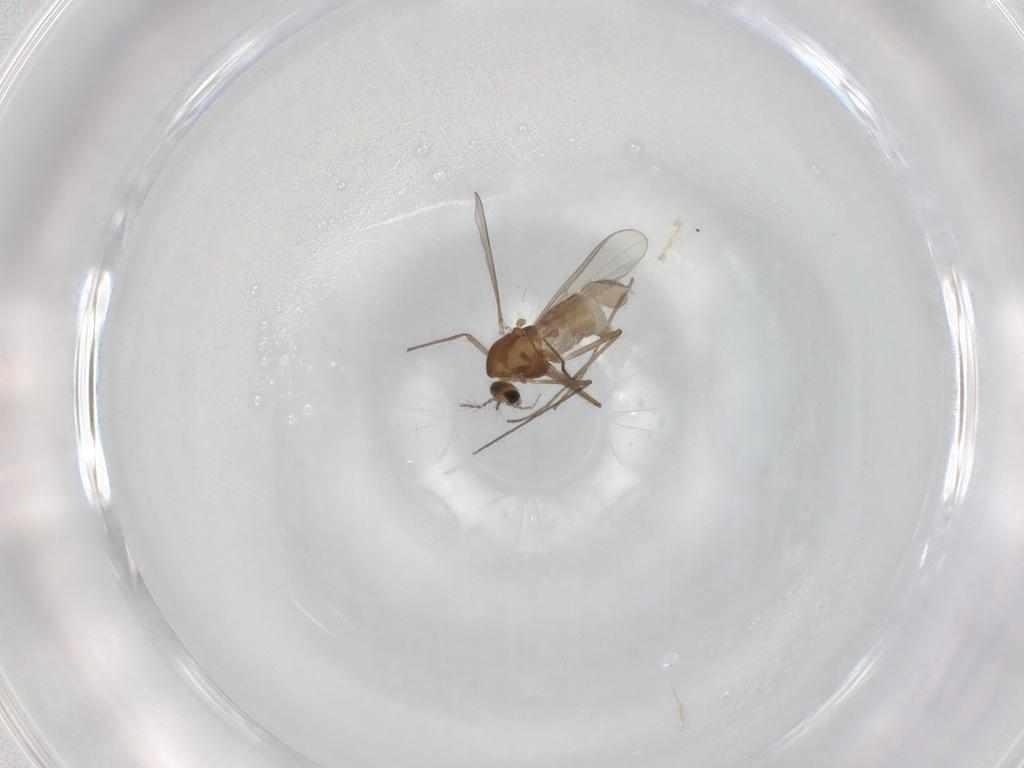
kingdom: Animalia
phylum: Arthropoda
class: Insecta
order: Diptera
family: Chironomidae
